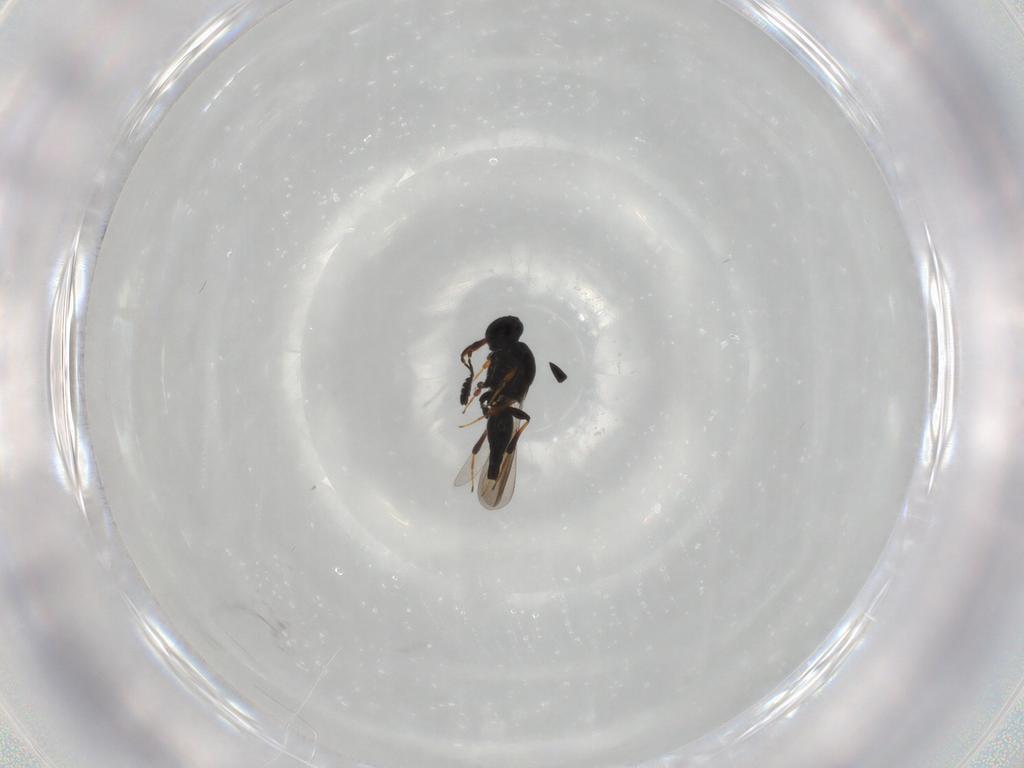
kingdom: Animalia
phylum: Arthropoda
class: Insecta
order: Hymenoptera
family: Platygastridae
